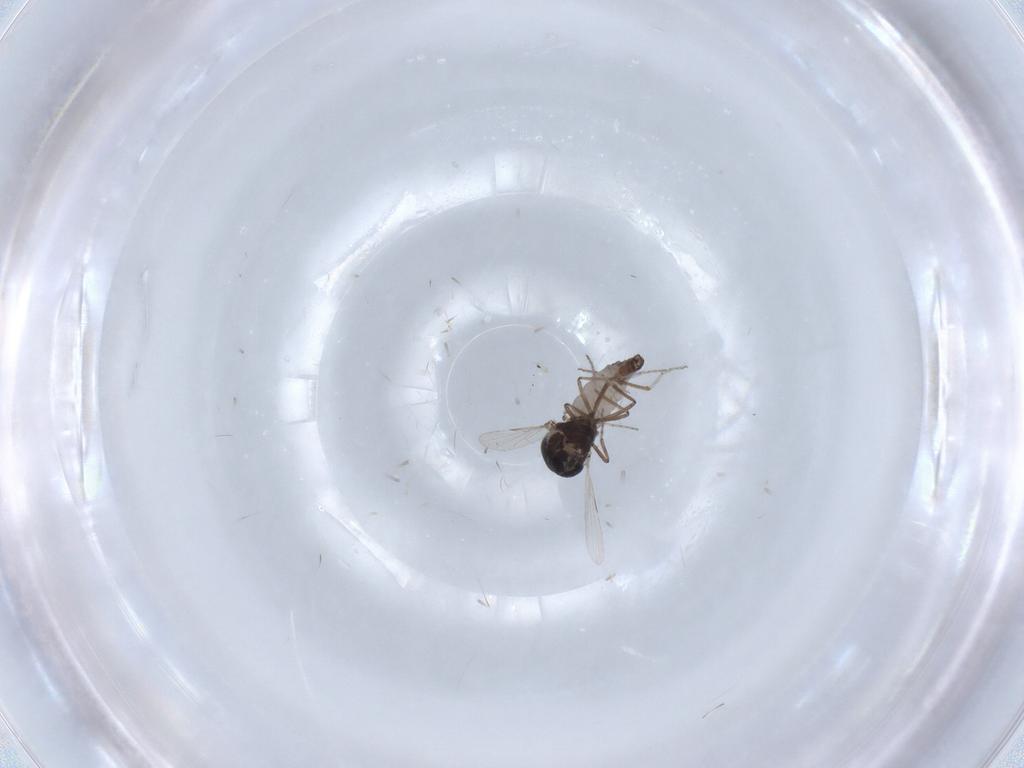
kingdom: Animalia
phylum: Arthropoda
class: Insecta
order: Diptera
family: Ceratopogonidae
